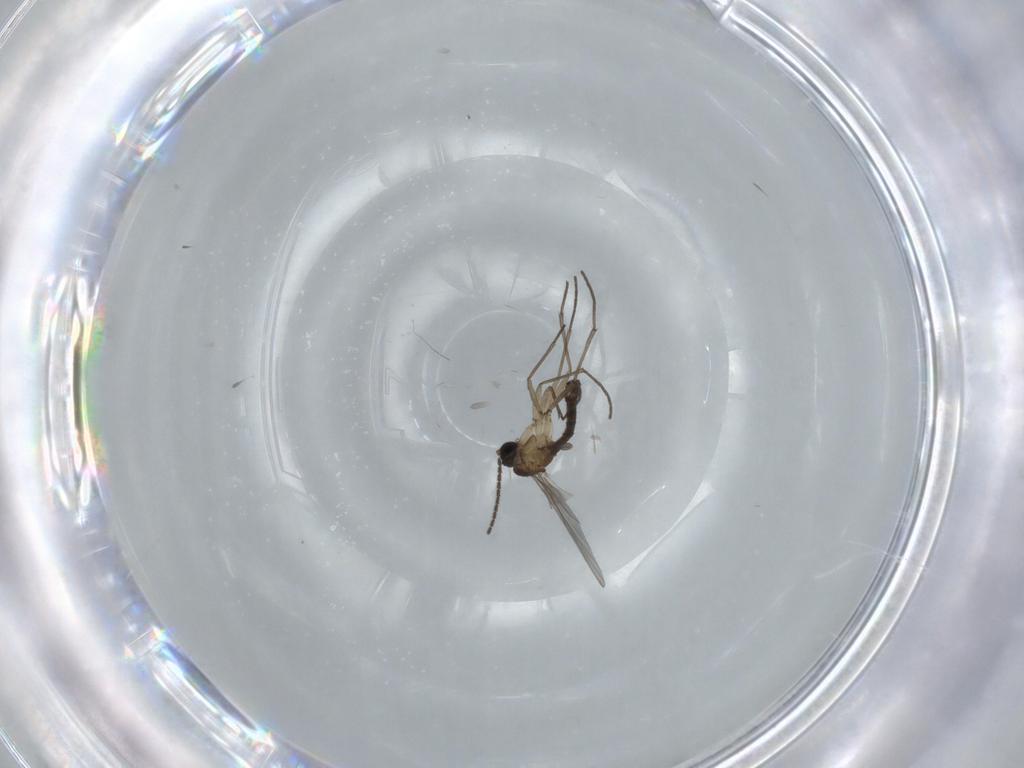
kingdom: Animalia
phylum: Arthropoda
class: Insecta
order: Diptera
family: Sciaridae
